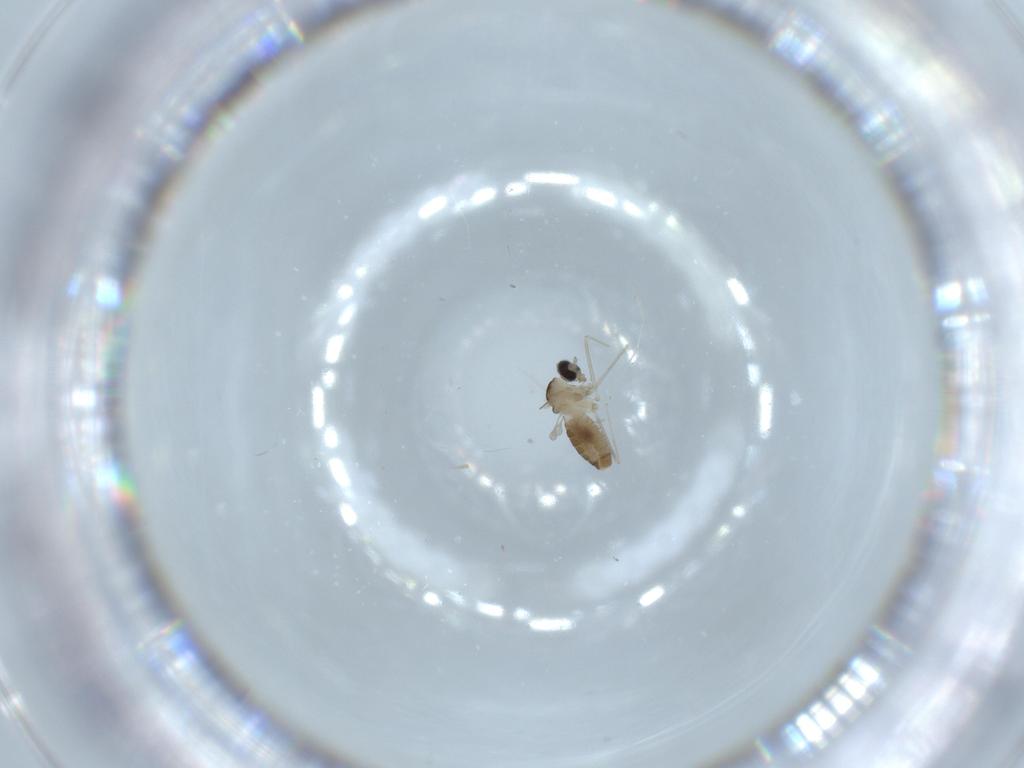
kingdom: Animalia
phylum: Arthropoda
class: Insecta
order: Diptera
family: Cecidomyiidae
